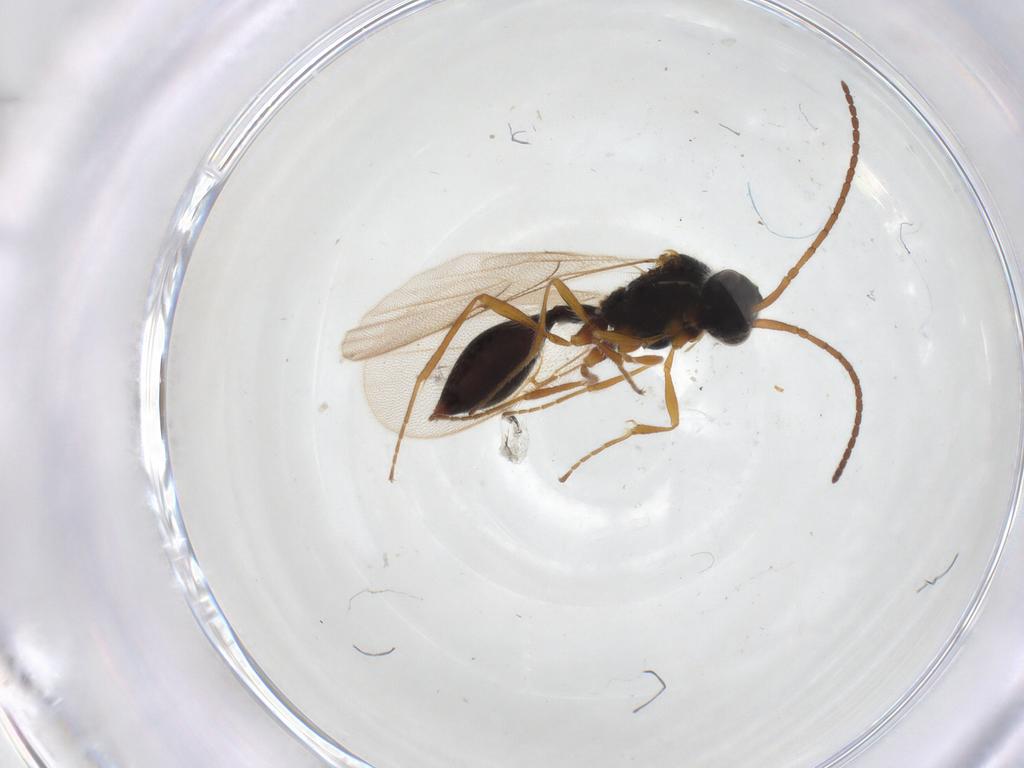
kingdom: Animalia
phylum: Arthropoda
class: Insecta
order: Hymenoptera
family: Diapriidae
